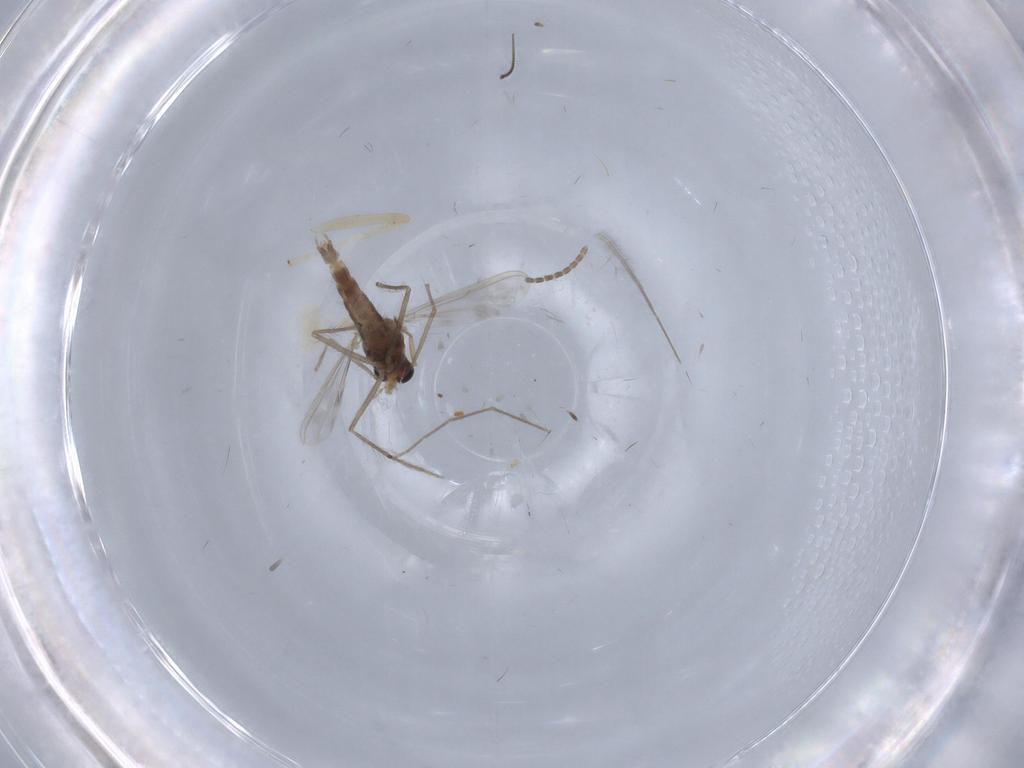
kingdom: Animalia
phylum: Arthropoda
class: Insecta
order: Diptera
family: Chironomidae
